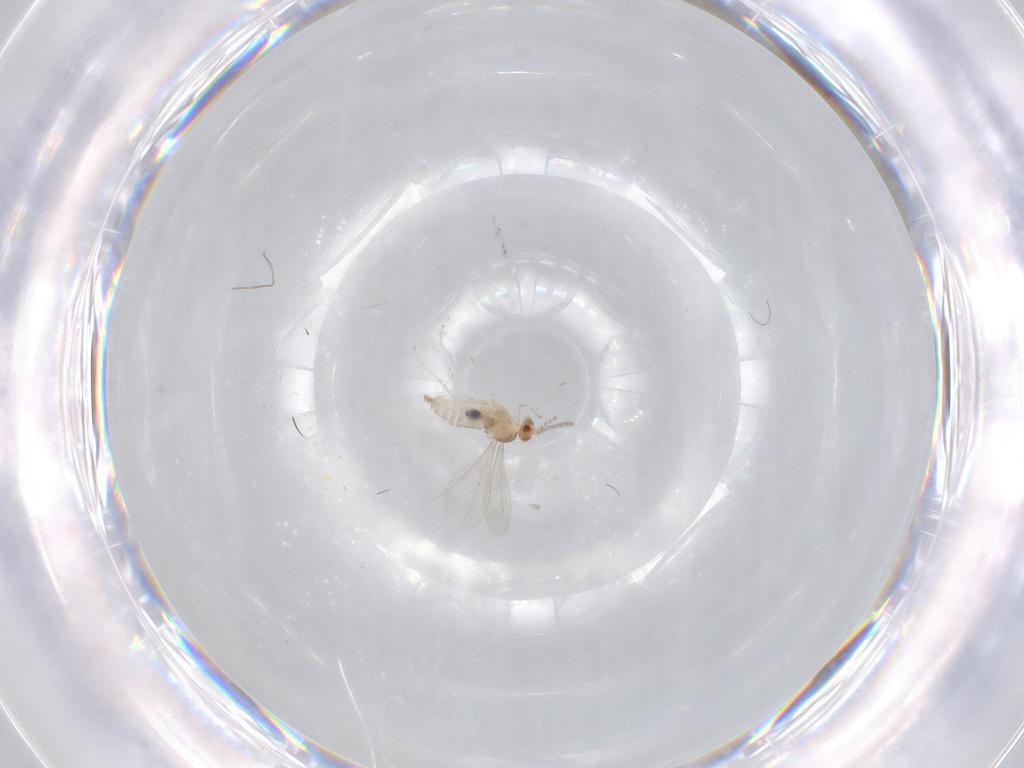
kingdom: Animalia
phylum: Arthropoda
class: Insecta
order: Diptera
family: Cecidomyiidae
